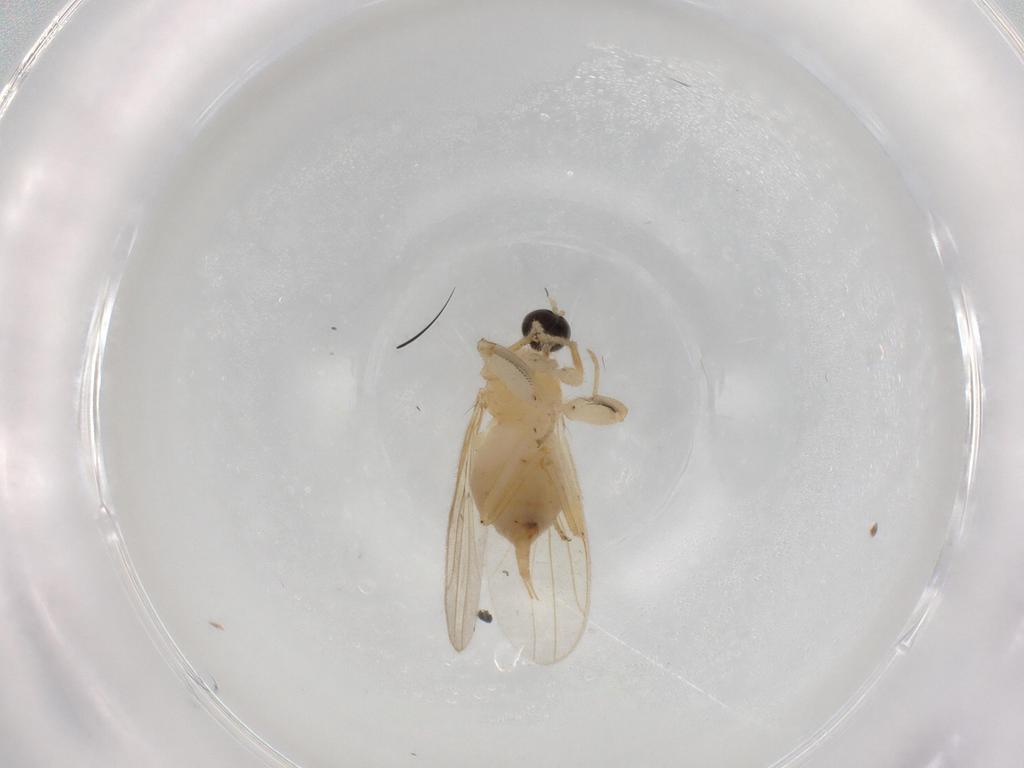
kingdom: Animalia
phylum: Arthropoda
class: Insecta
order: Diptera
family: Hybotidae
